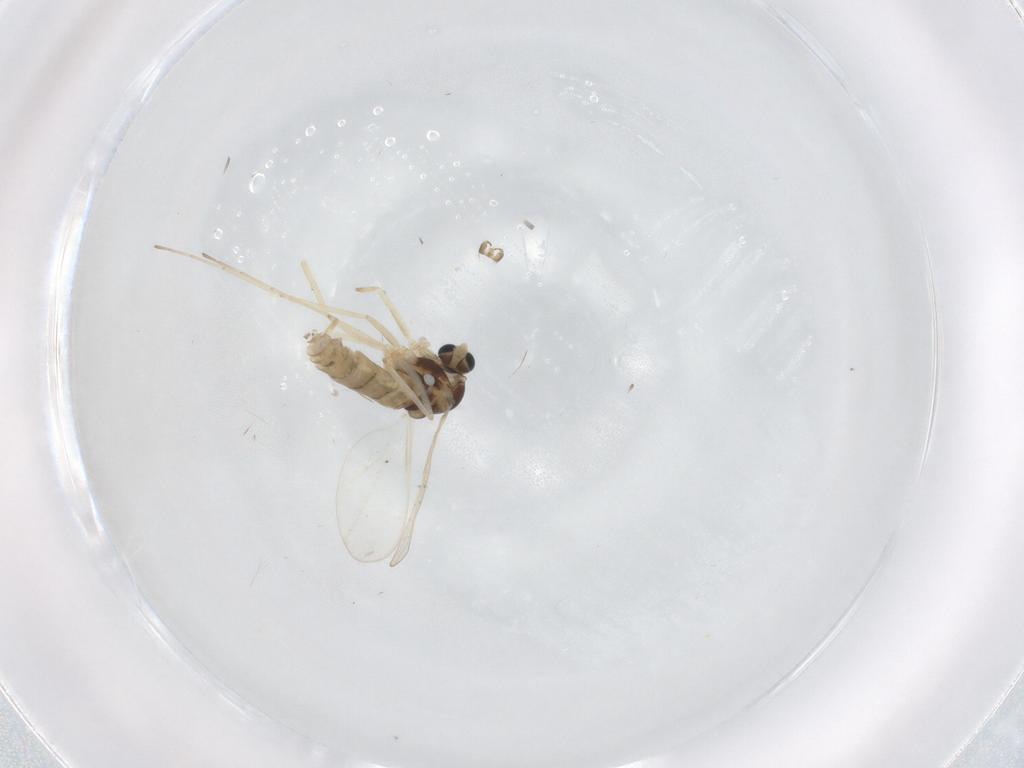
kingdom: Animalia
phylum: Arthropoda
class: Insecta
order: Diptera
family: Cecidomyiidae
